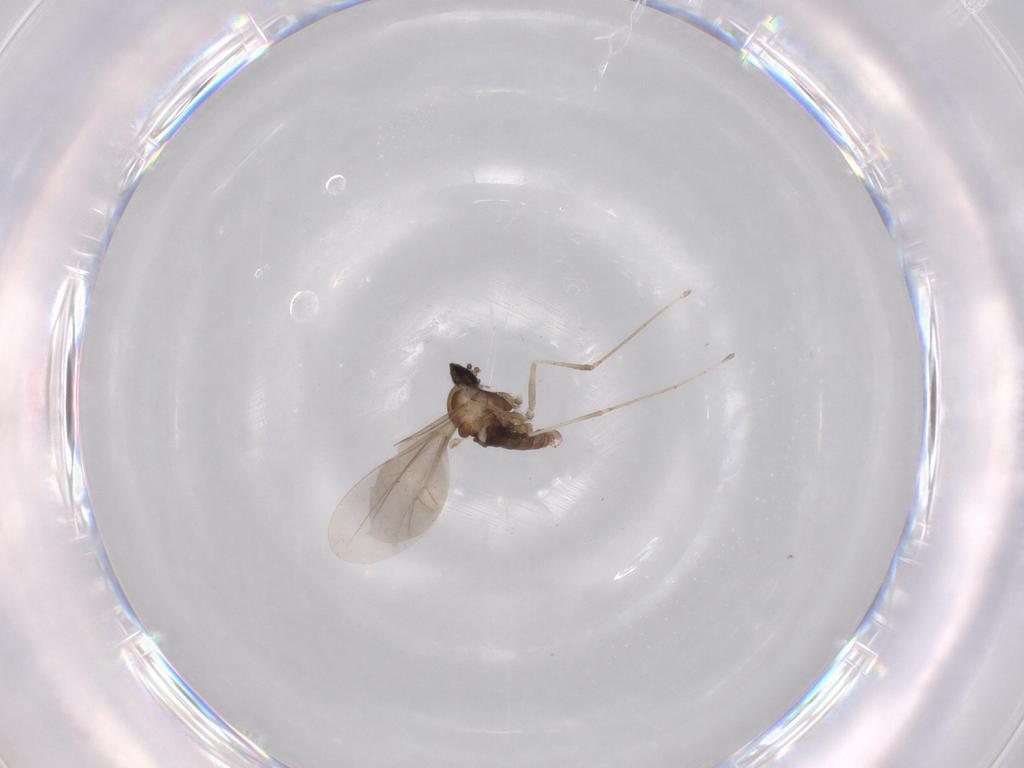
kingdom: Animalia
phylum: Arthropoda
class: Insecta
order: Diptera
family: Cecidomyiidae
